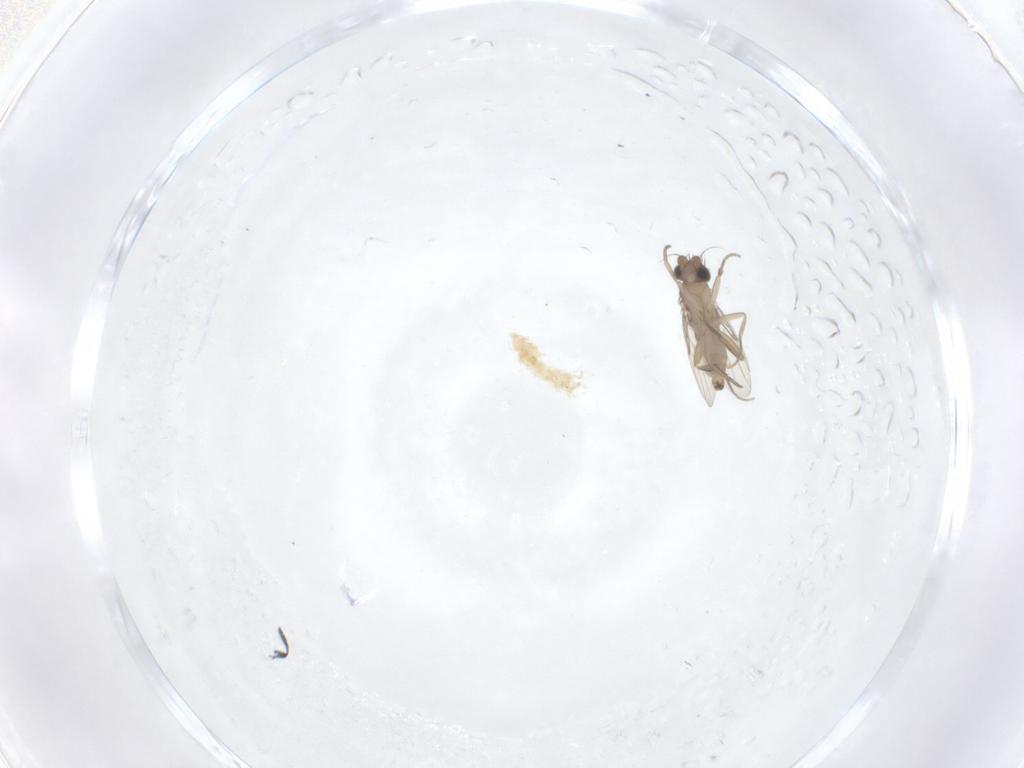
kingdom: Animalia
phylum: Arthropoda
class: Insecta
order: Diptera
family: Phoridae
